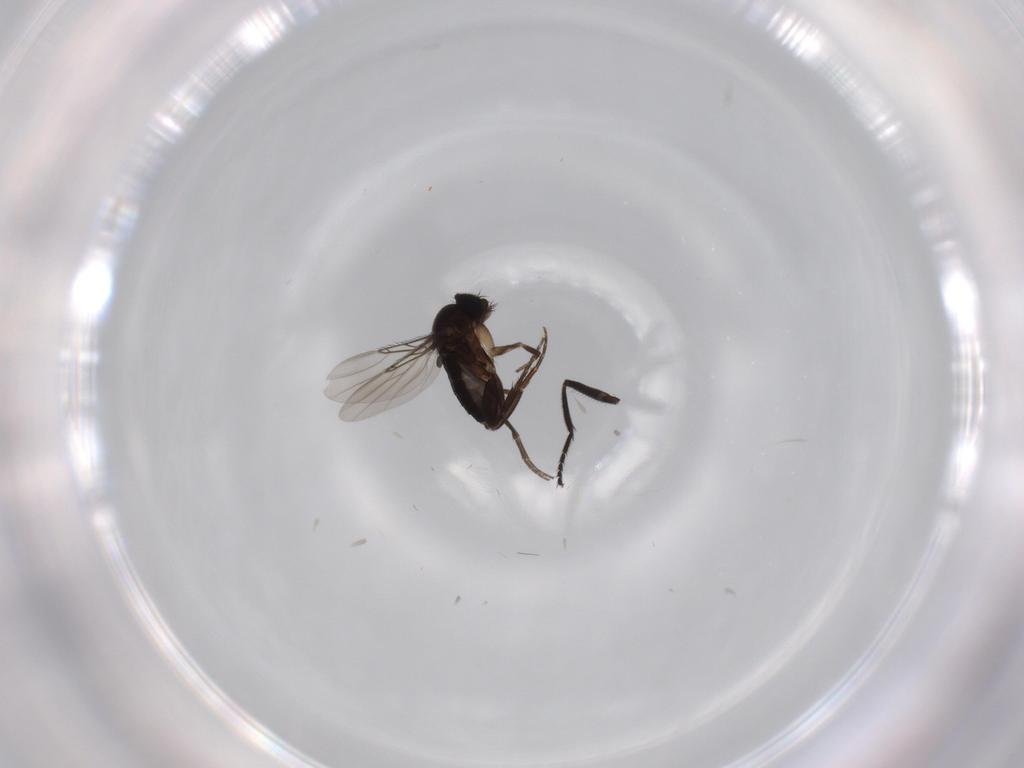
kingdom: Animalia
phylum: Arthropoda
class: Insecta
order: Diptera
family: Phoridae
